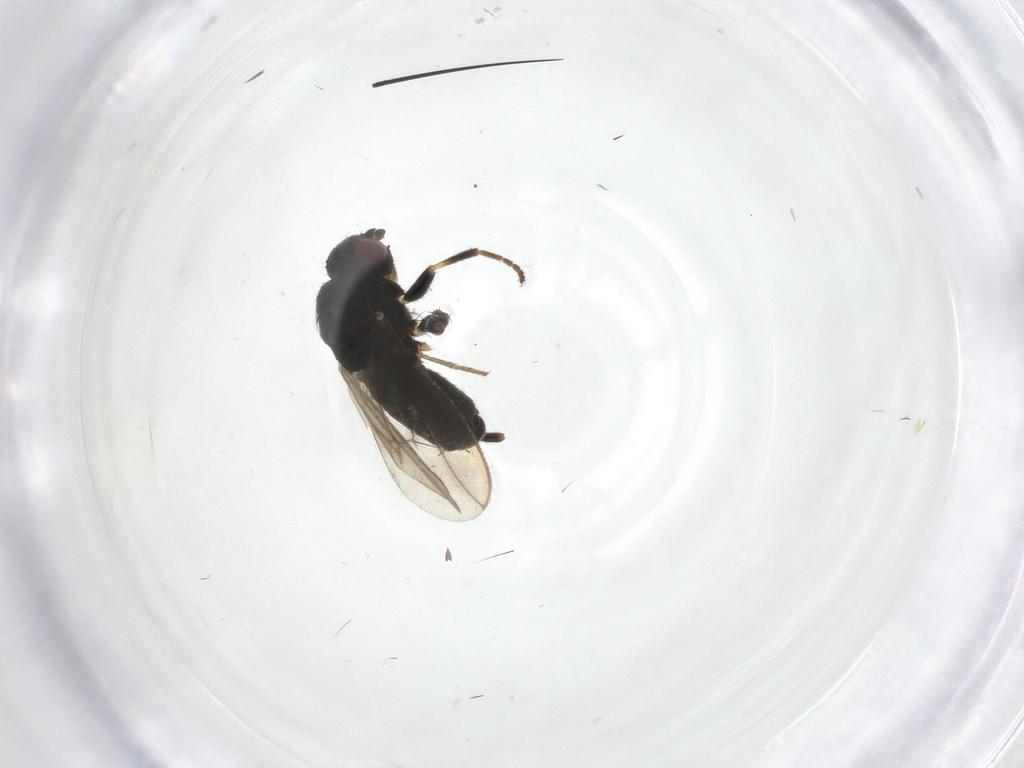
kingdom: Animalia
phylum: Arthropoda
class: Insecta
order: Diptera
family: Sphaeroceridae
